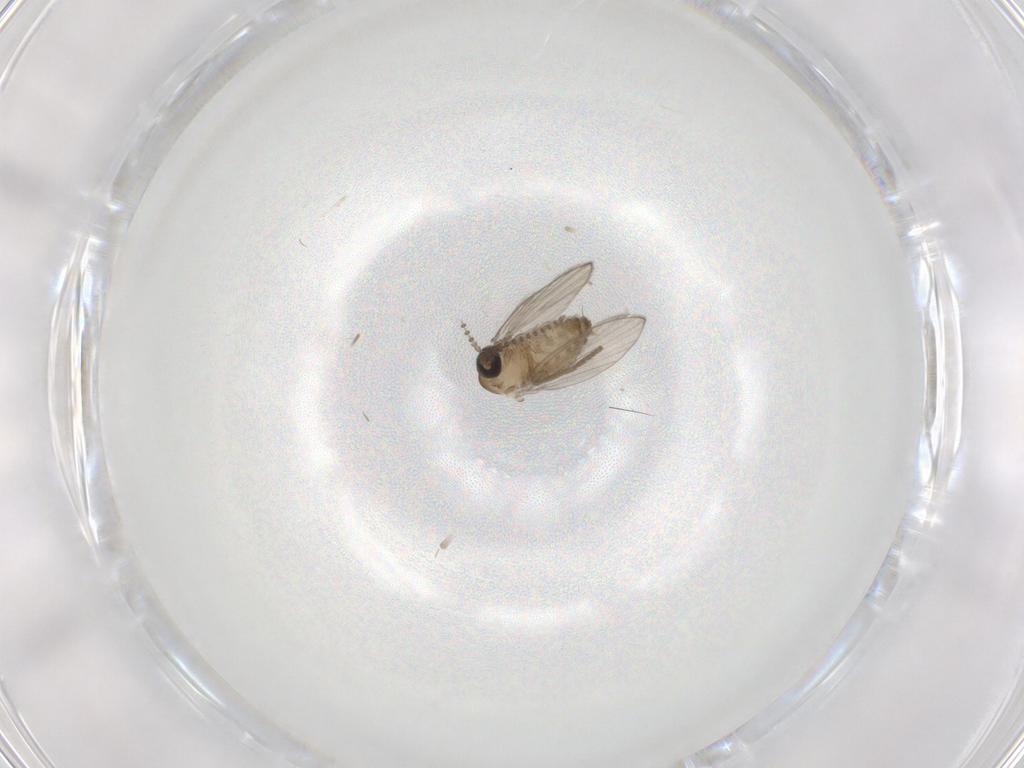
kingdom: Animalia
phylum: Arthropoda
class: Insecta
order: Diptera
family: Psychodidae
